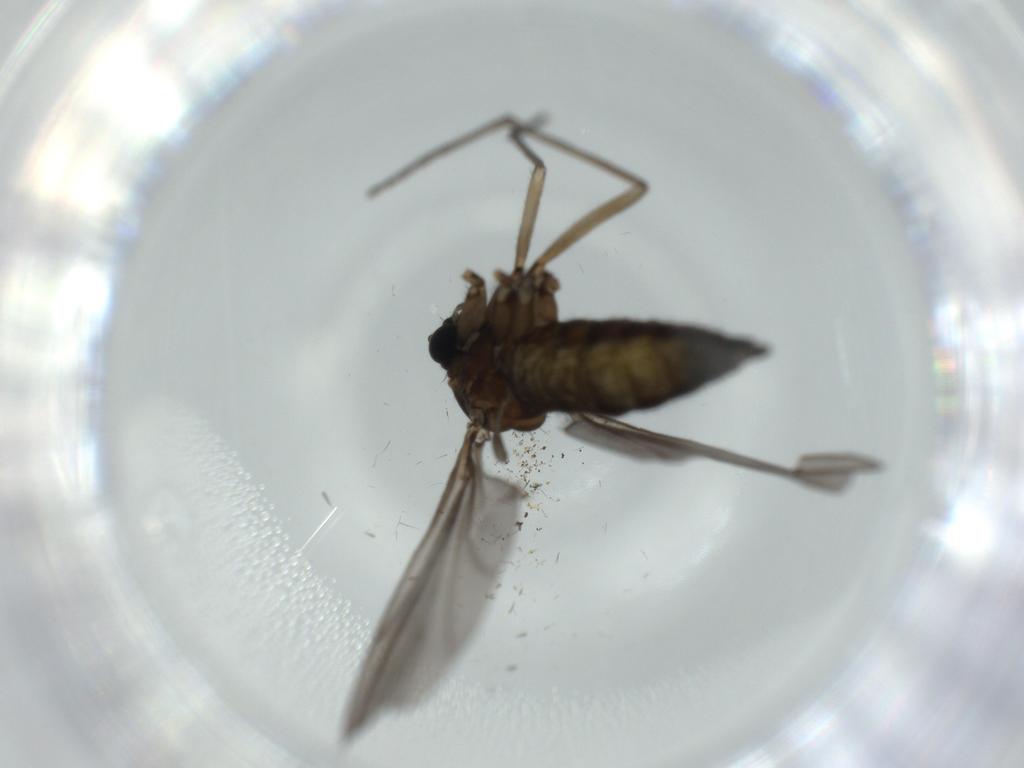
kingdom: Animalia
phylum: Arthropoda
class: Insecta
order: Diptera
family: Sciaridae
